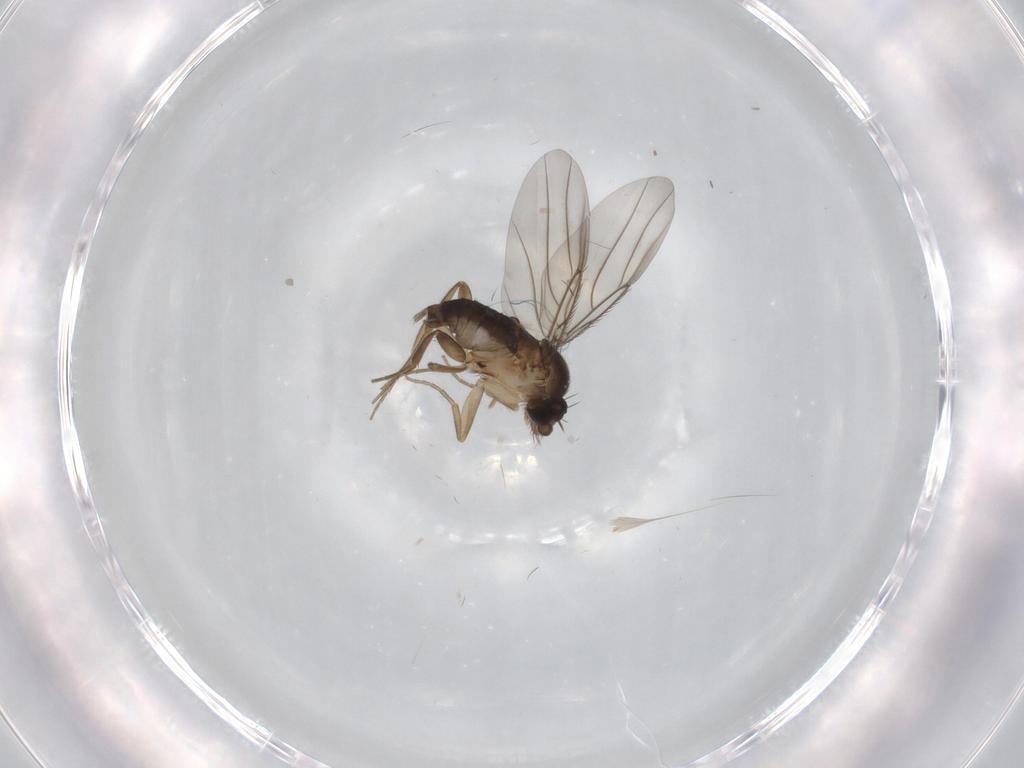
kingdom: Animalia
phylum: Arthropoda
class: Insecta
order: Diptera
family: Phoridae
